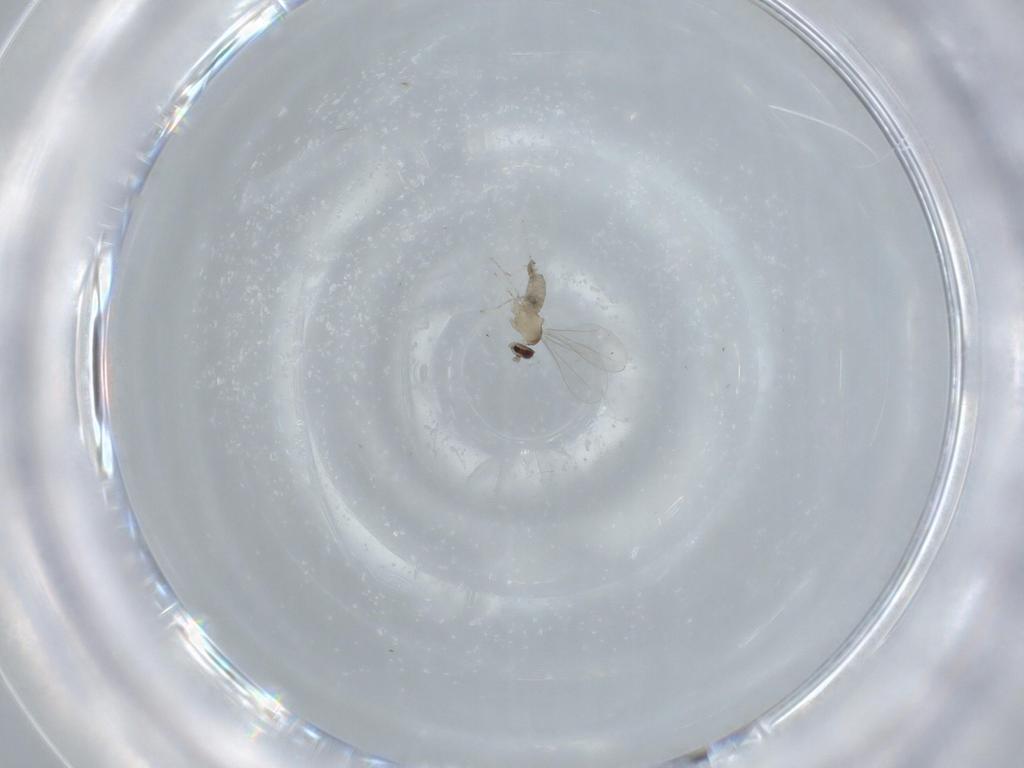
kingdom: Animalia
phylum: Arthropoda
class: Insecta
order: Diptera
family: Cecidomyiidae
